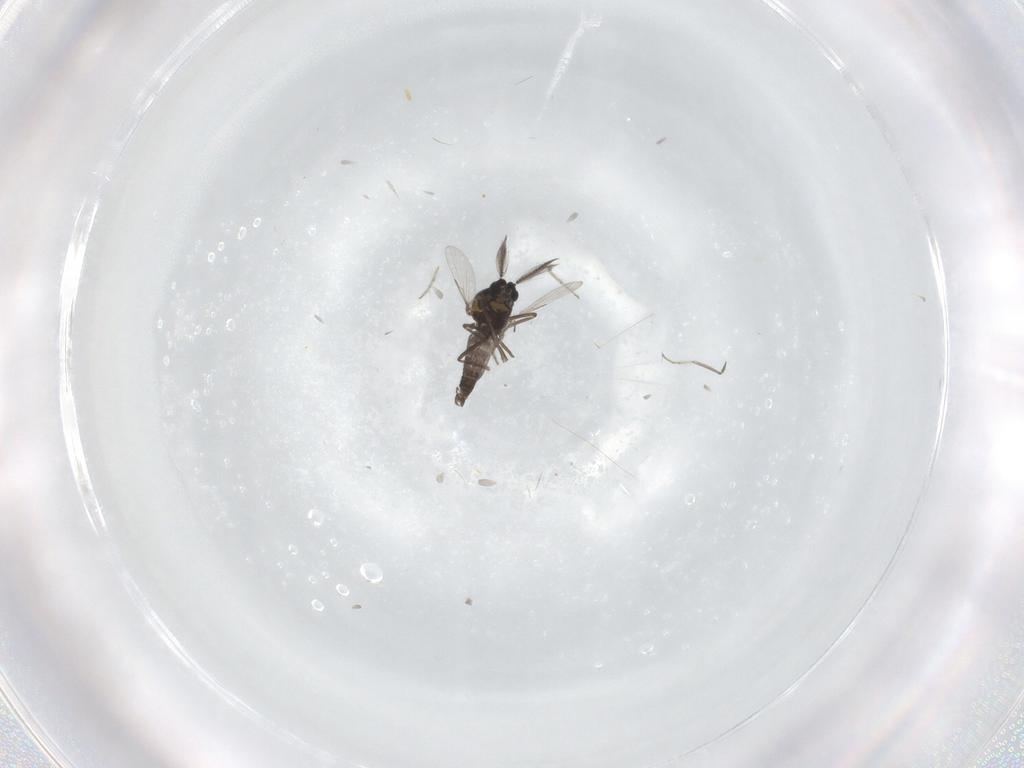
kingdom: Animalia
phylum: Arthropoda
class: Insecta
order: Diptera
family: Ceratopogonidae
